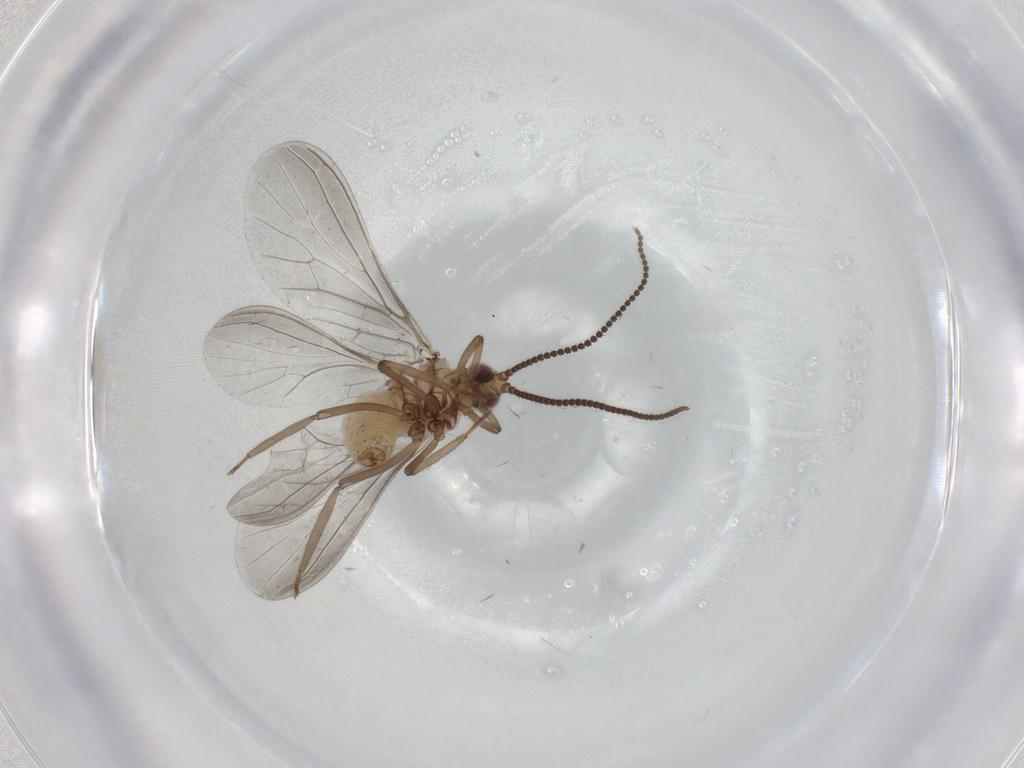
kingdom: Animalia
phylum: Arthropoda
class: Insecta
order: Neuroptera
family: Coniopterygidae
